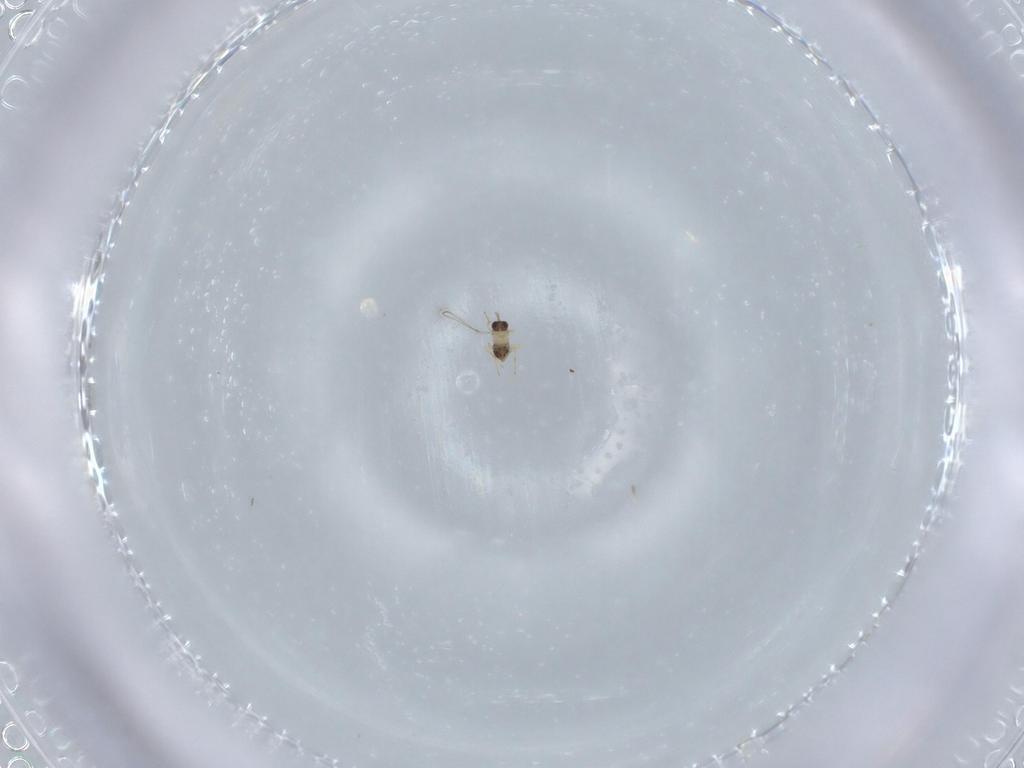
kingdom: Animalia
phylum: Arthropoda
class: Insecta
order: Hymenoptera
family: Mymaridae
